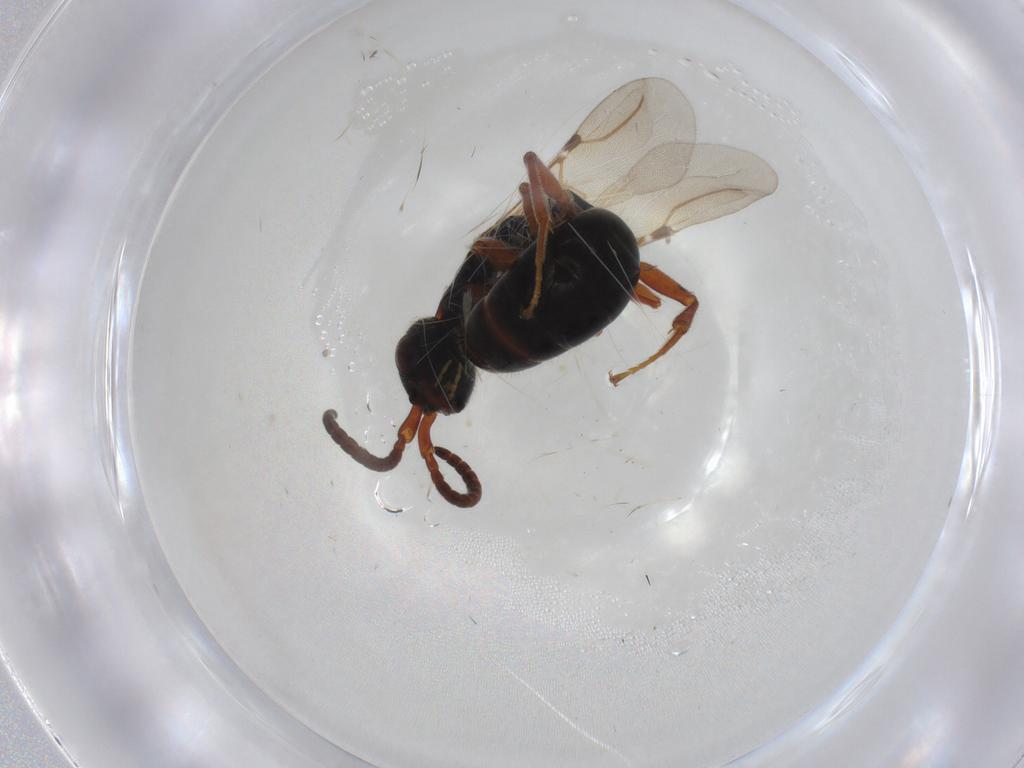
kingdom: Animalia
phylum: Arthropoda
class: Insecta
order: Hymenoptera
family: Bethylidae
